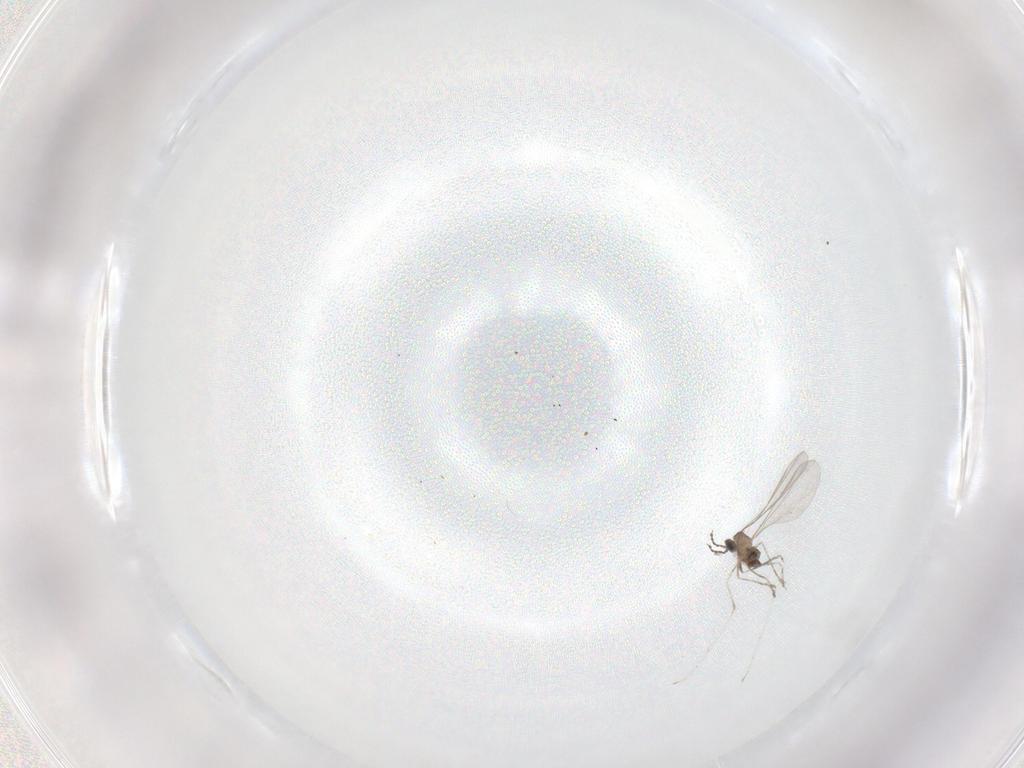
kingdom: Animalia
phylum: Arthropoda
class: Insecta
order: Diptera
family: Cecidomyiidae
